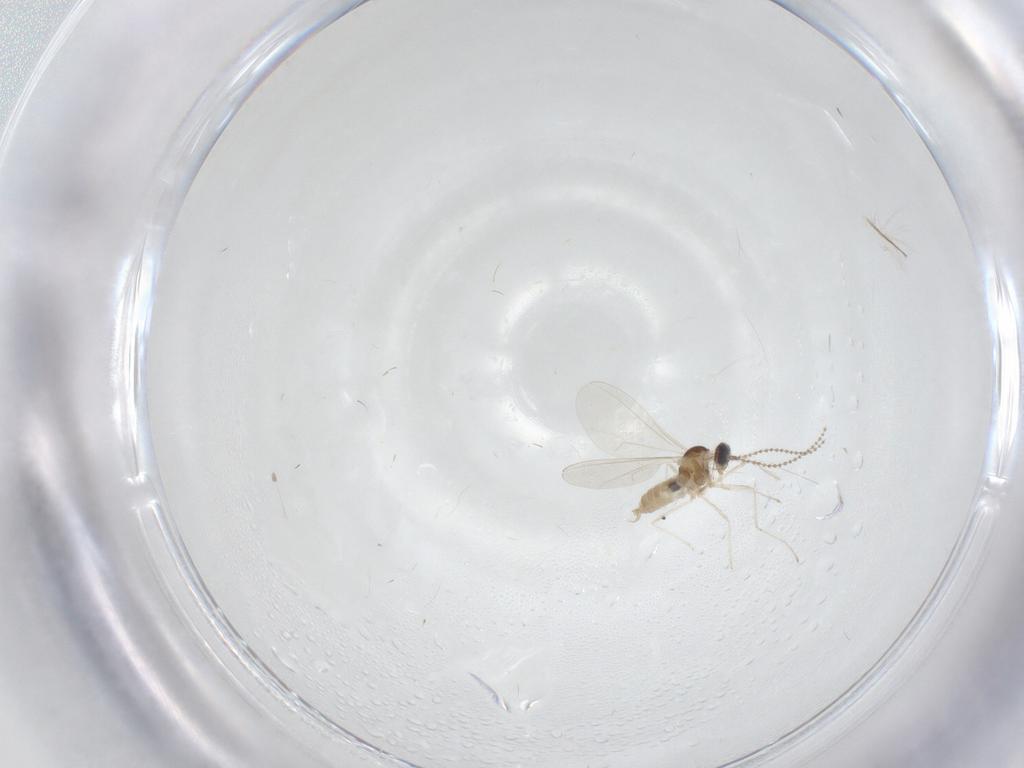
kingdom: Animalia
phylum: Arthropoda
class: Insecta
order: Diptera
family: Cecidomyiidae
